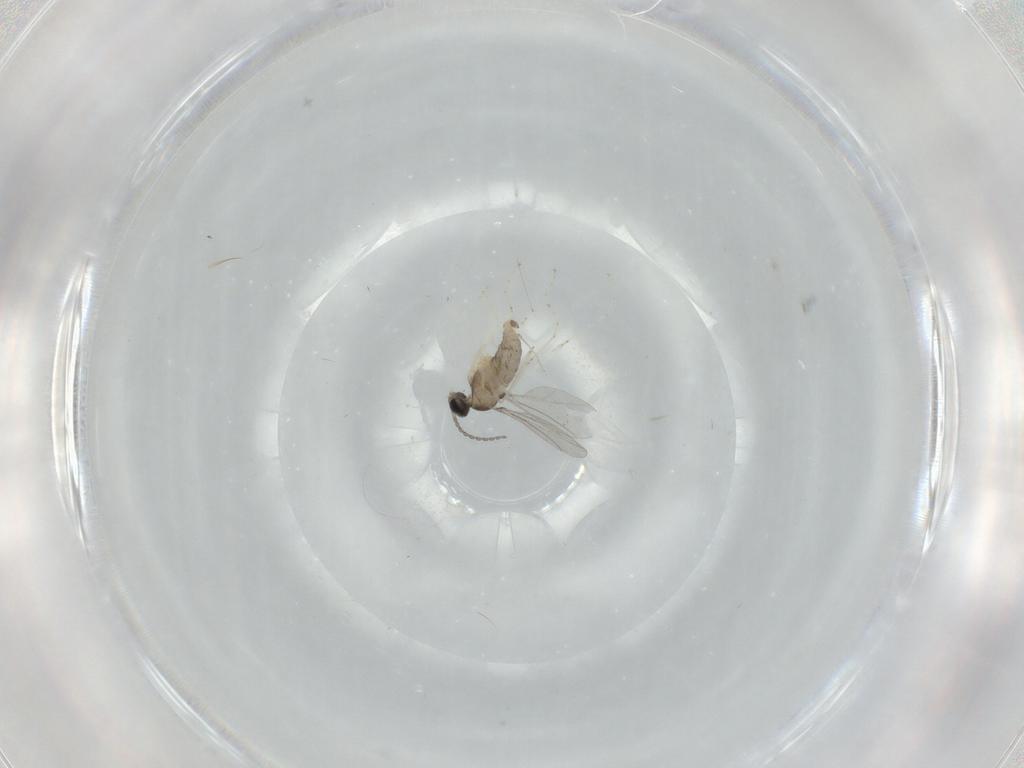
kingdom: Animalia
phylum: Arthropoda
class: Insecta
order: Diptera
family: Cecidomyiidae
